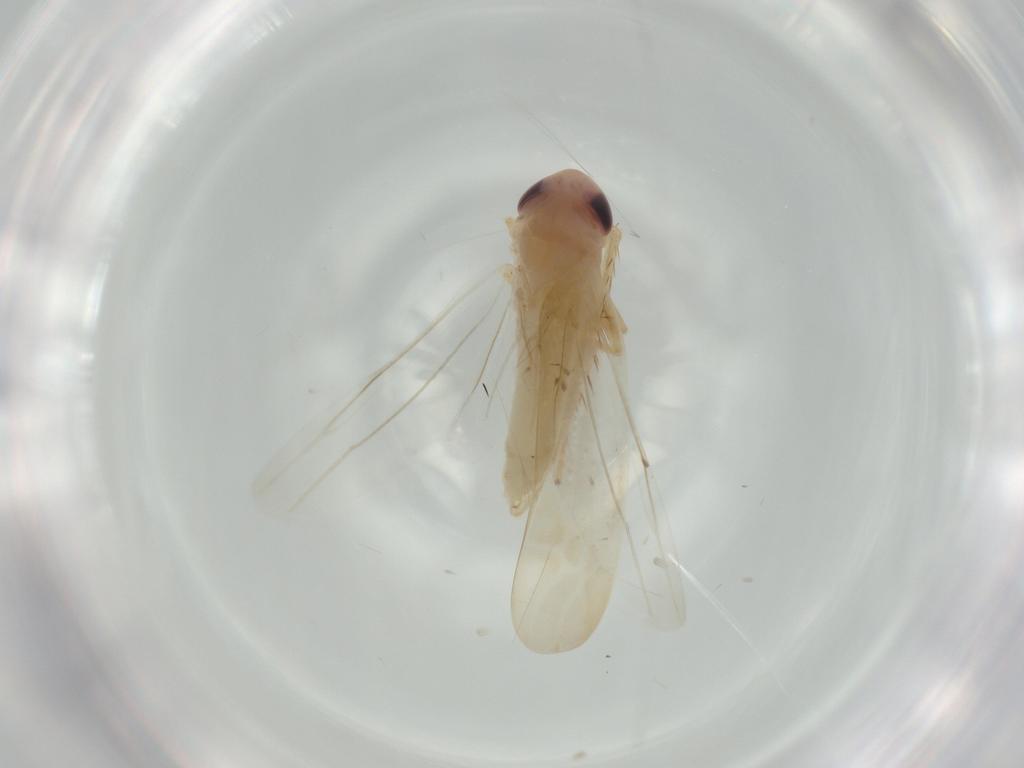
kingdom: Animalia
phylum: Arthropoda
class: Insecta
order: Hemiptera
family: Cicadellidae
